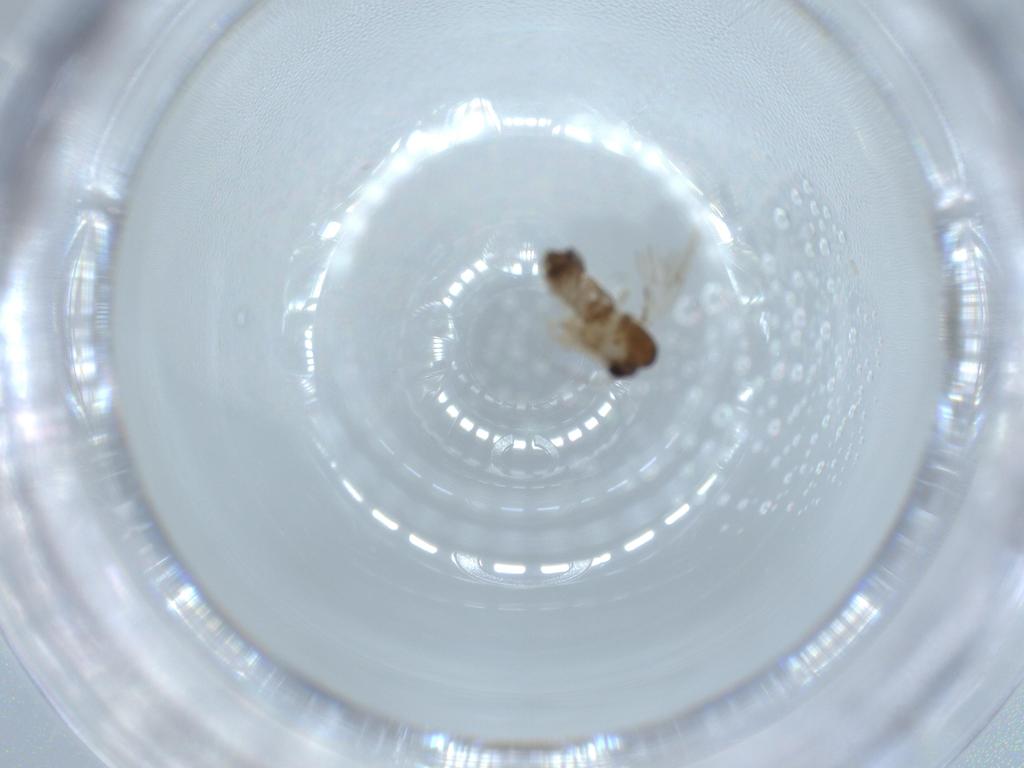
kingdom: Animalia
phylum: Arthropoda
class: Insecta
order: Diptera
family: Psychodidae
